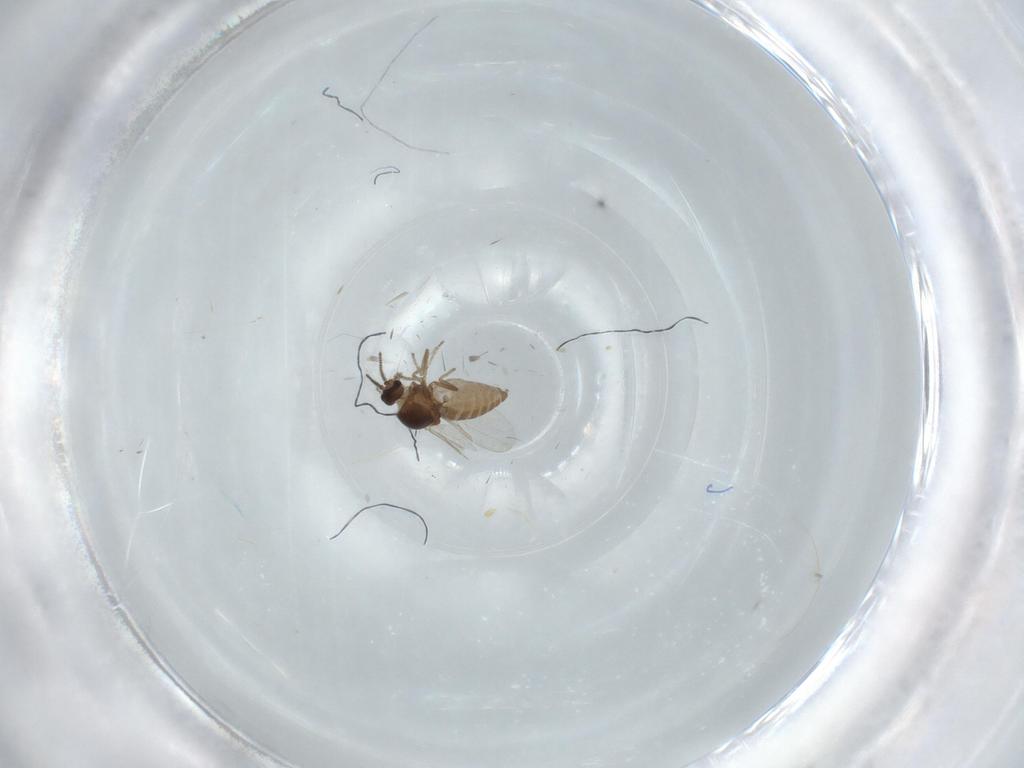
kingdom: Animalia
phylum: Arthropoda
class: Insecta
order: Diptera
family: Ceratopogonidae
